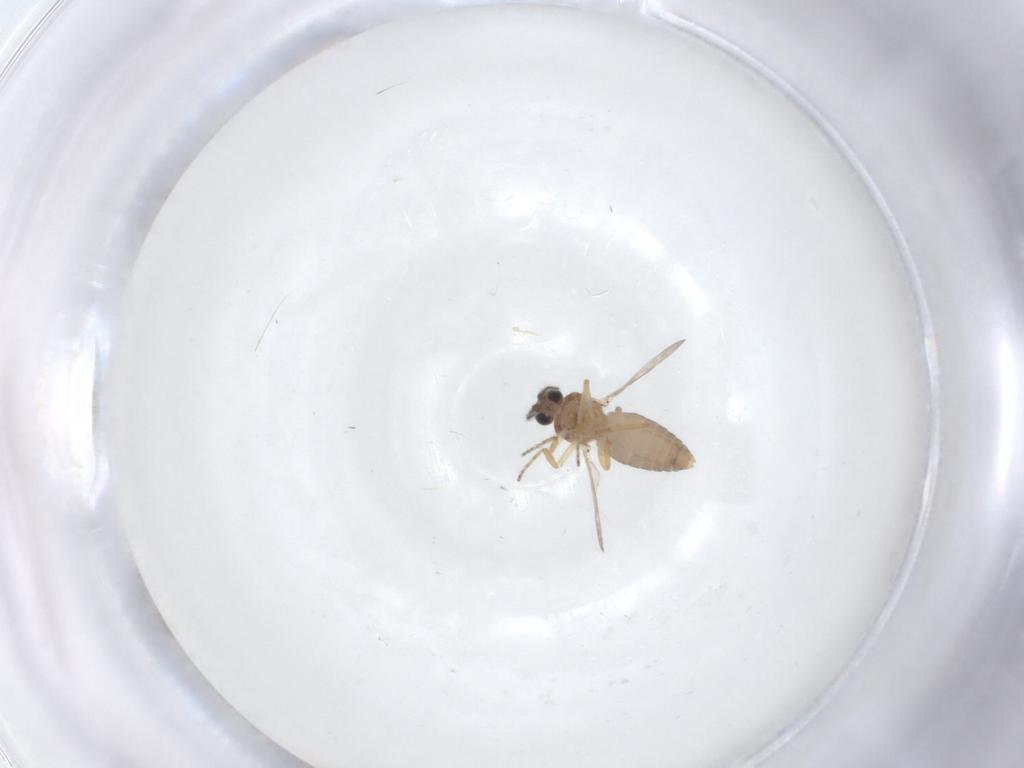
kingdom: Animalia
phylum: Arthropoda
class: Insecta
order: Diptera
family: Ceratopogonidae
